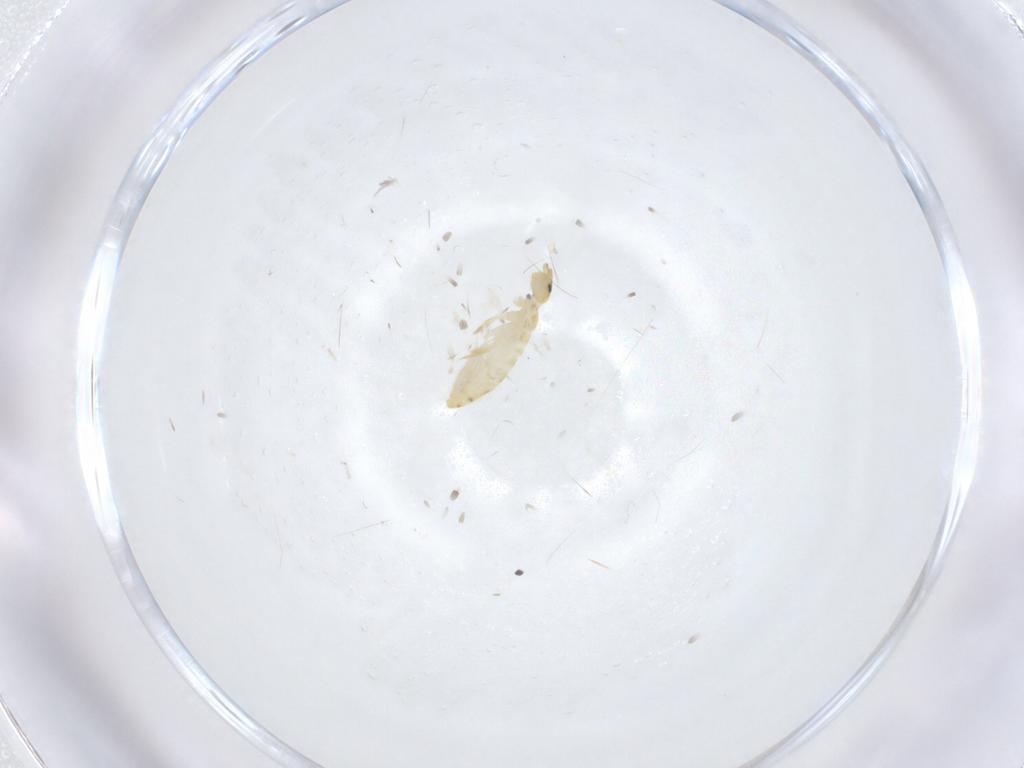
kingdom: Animalia
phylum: Arthropoda
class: Collembola
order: Entomobryomorpha
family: Entomobryidae
